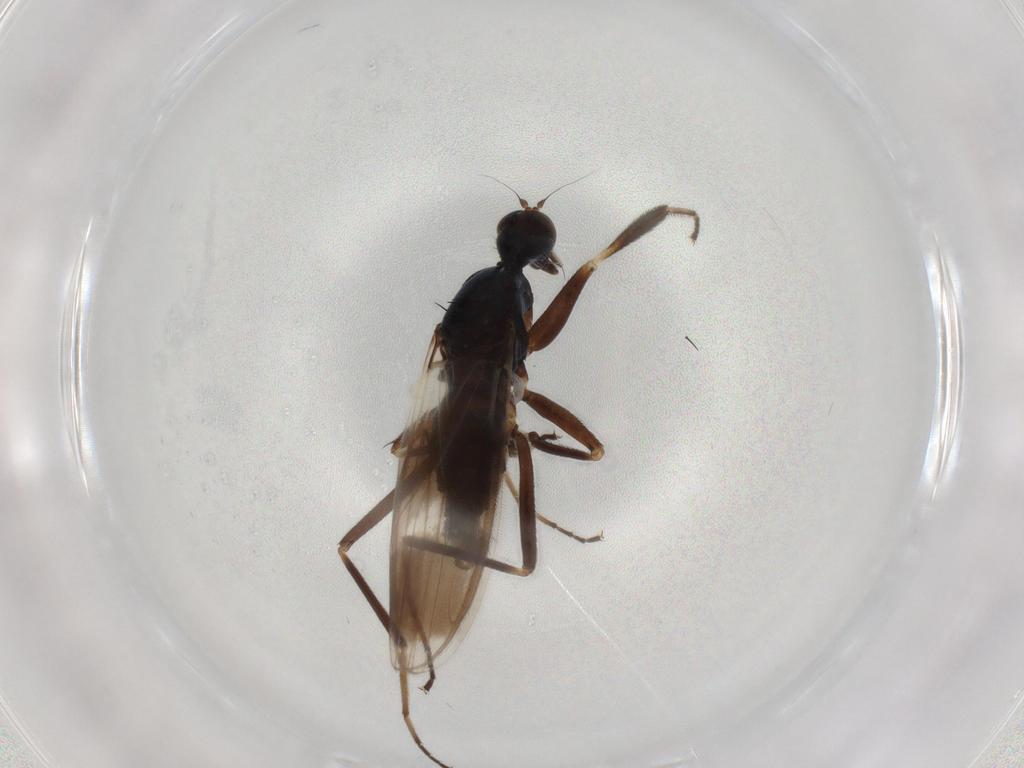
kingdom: Animalia
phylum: Arthropoda
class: Insecta
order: Diptera
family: Hybotidae
